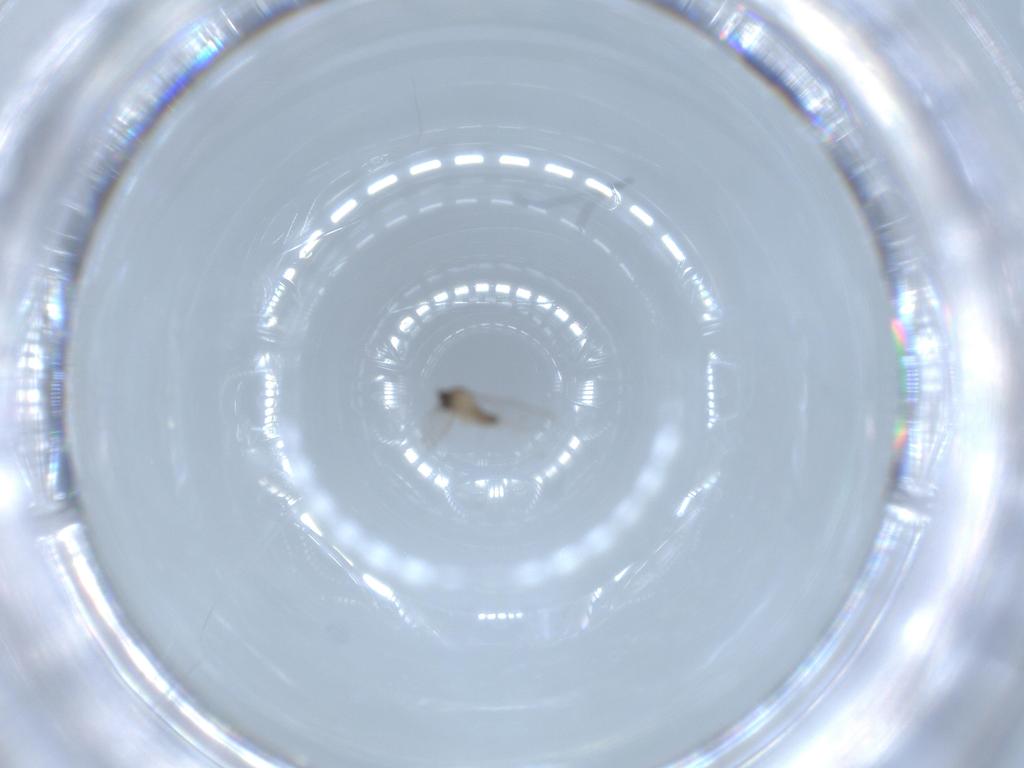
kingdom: Animalia
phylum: Arthropoda
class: Insecta
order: Diptera
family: Cecidomyiidae
